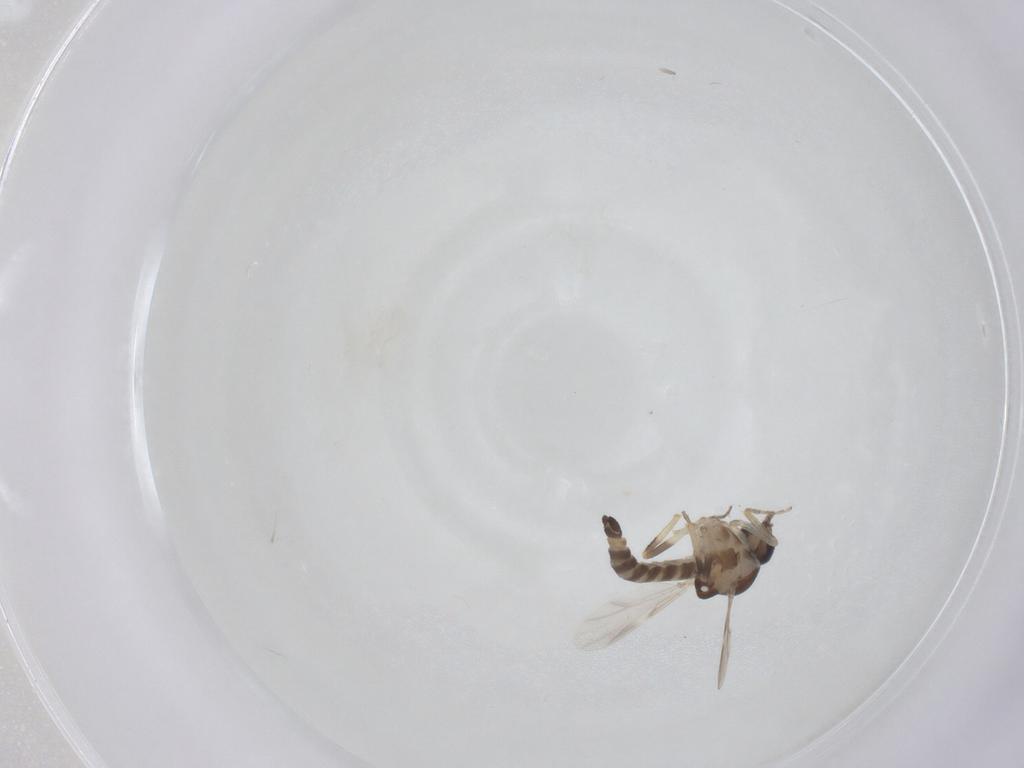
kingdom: Animalia
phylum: Arthropoda
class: Insecta
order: Diptera
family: Ceratopogonidae
